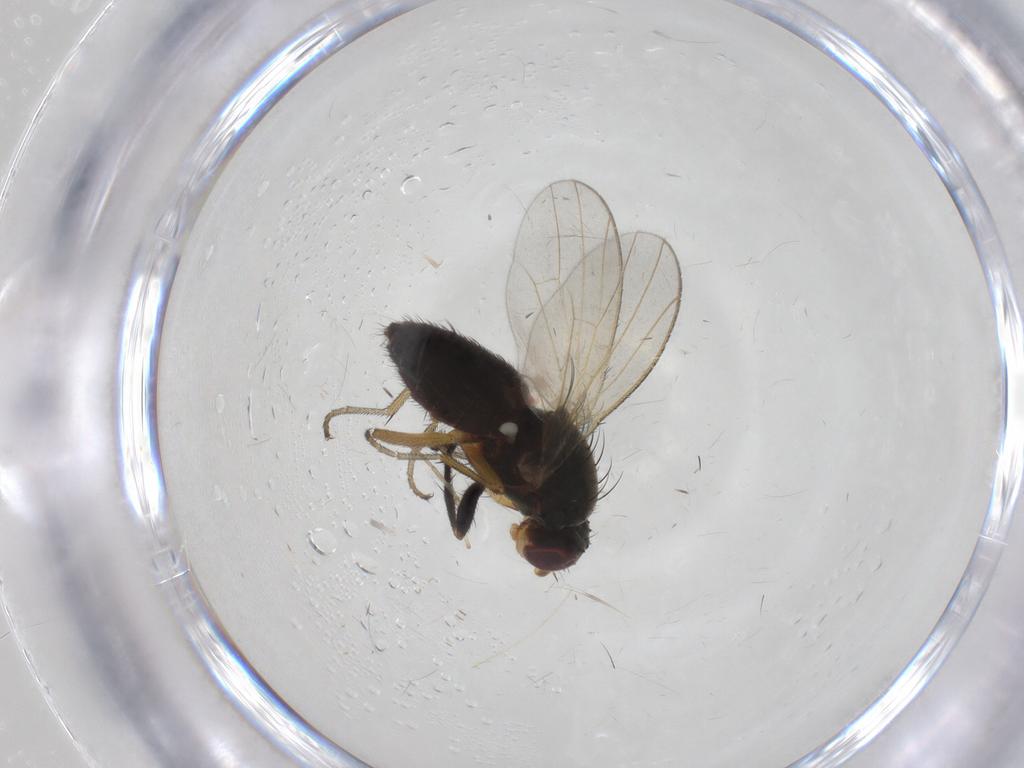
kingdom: Animalia
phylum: Arthropoda
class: Insecta
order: Diptera
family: Heleomyzidae
